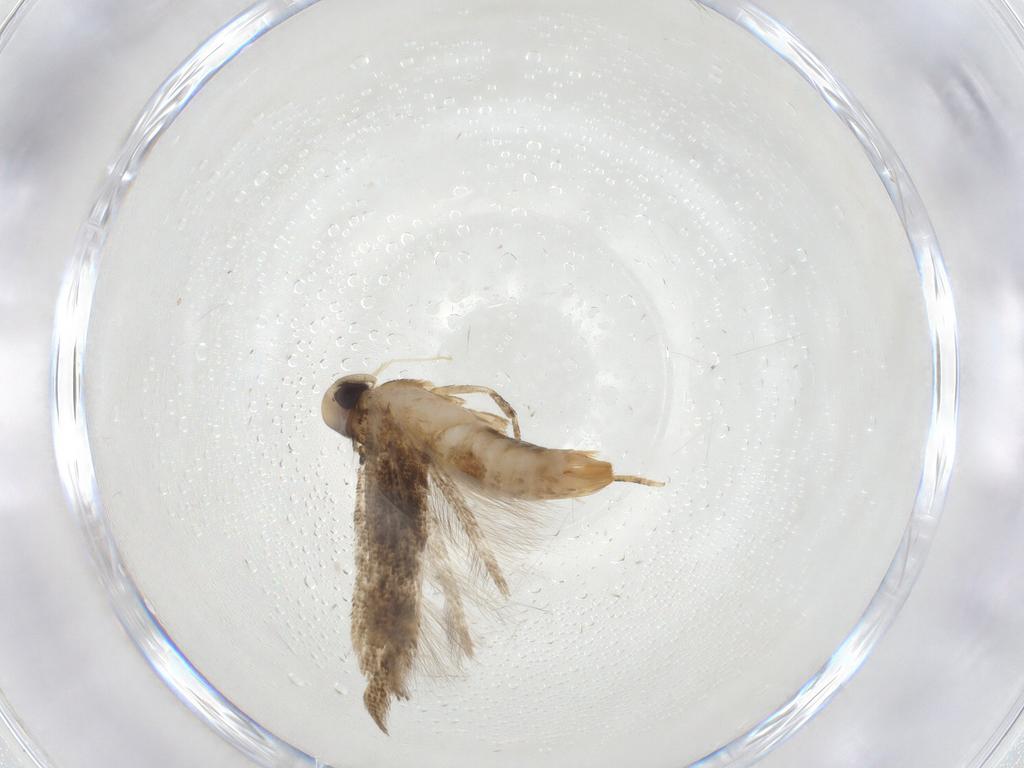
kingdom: Animalia
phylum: Arthropoda
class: Insecta
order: Lepidoptera
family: Cosmopterigidae
